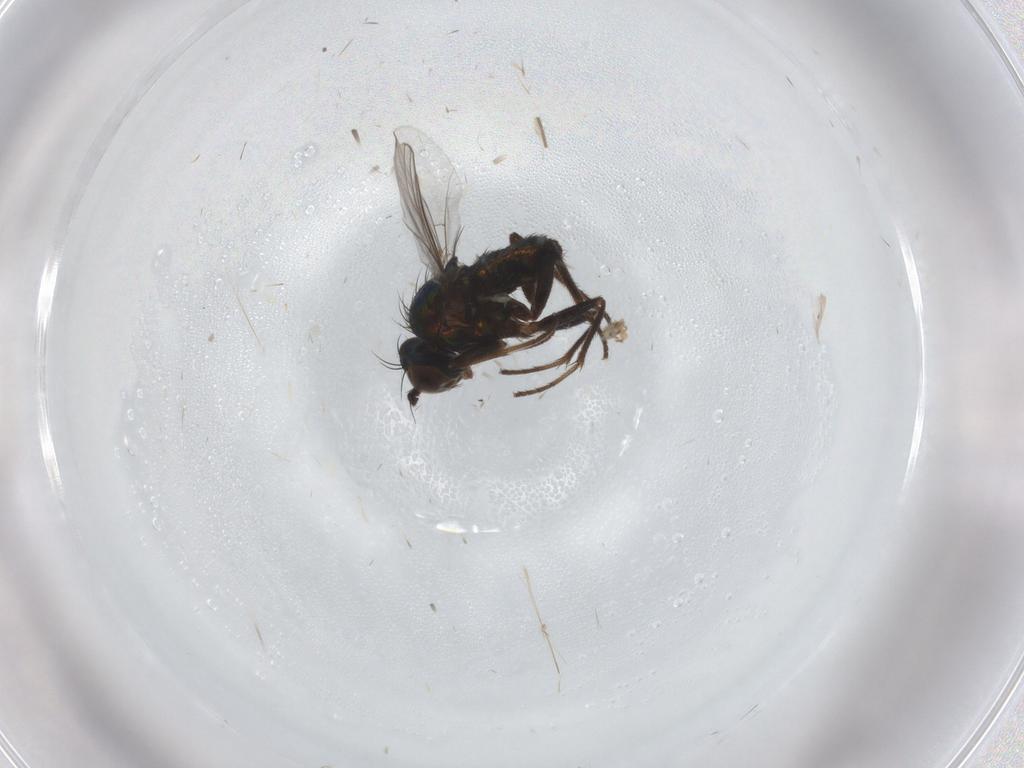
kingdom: Animalia
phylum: Arthropoda
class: Insecta
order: Diptera
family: Dolichopodidae
